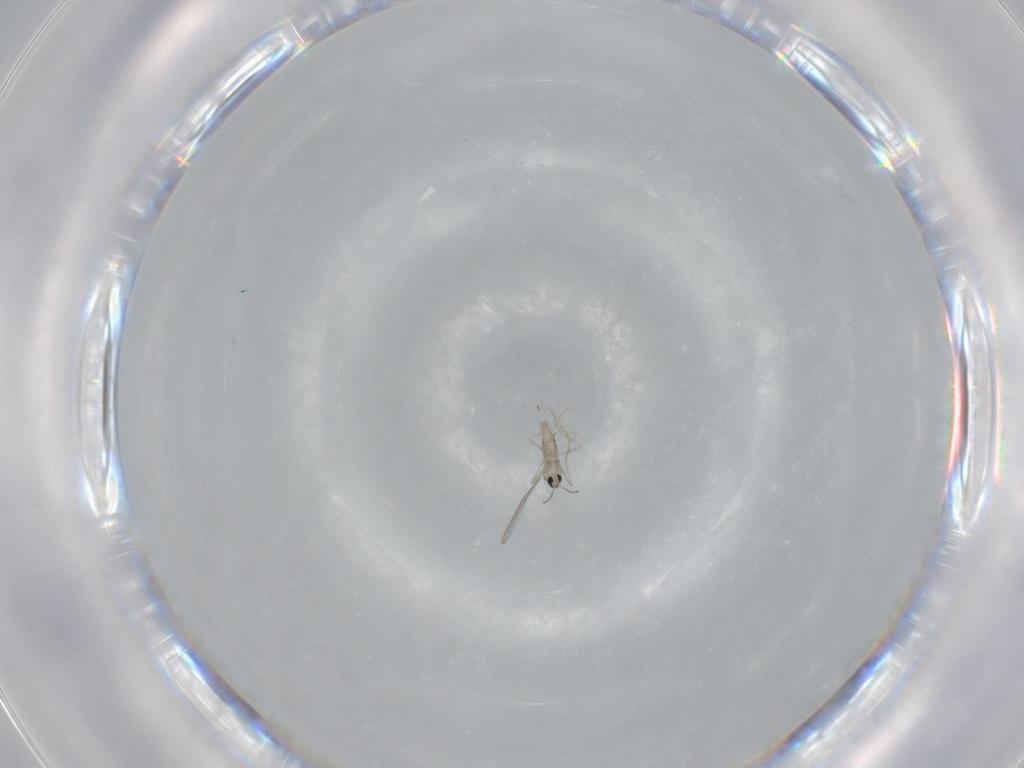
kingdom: Animalia
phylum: Arthropoda
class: Insecta
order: Diptera
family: Cecidomyiidae
